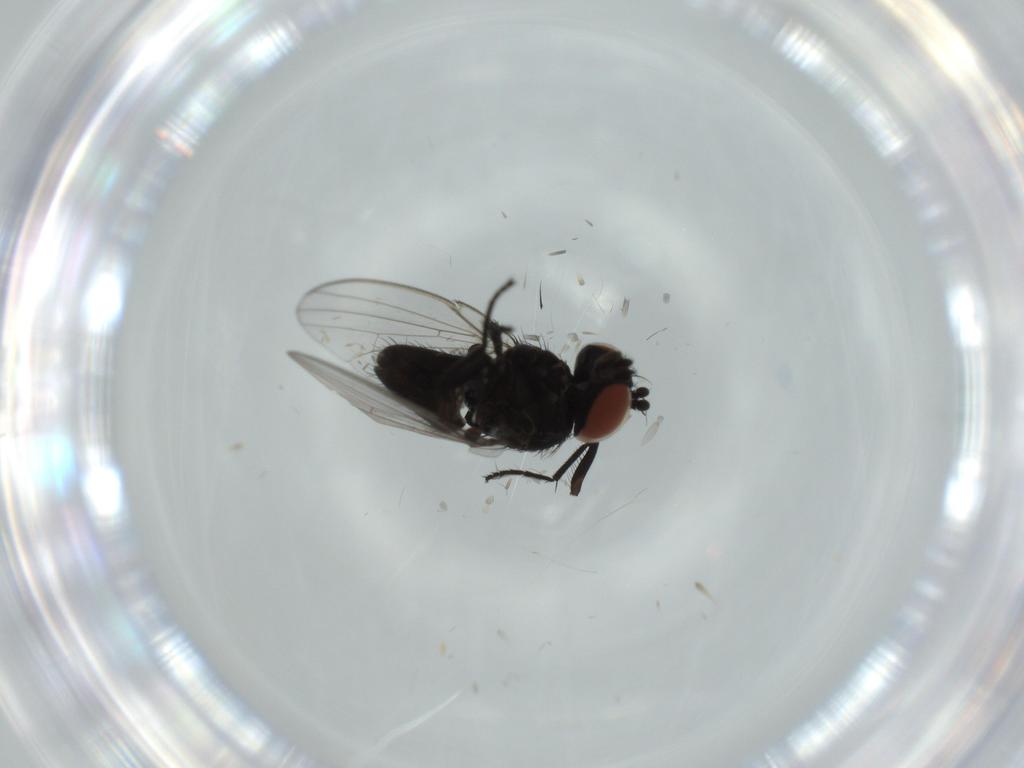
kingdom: Animalia
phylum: Arthropoda
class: Insecta
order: Diptera
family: Milichiidae
